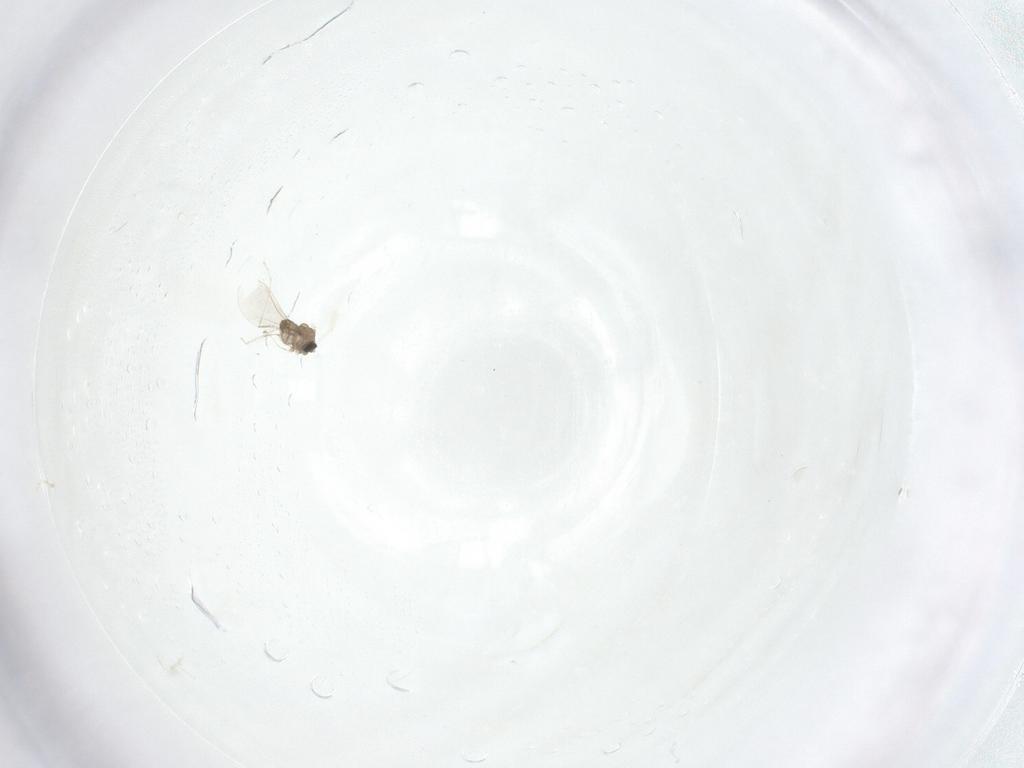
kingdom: Animalia
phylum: Arthropoda
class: Insecta
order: Diptera
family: Cecidomyiidae
